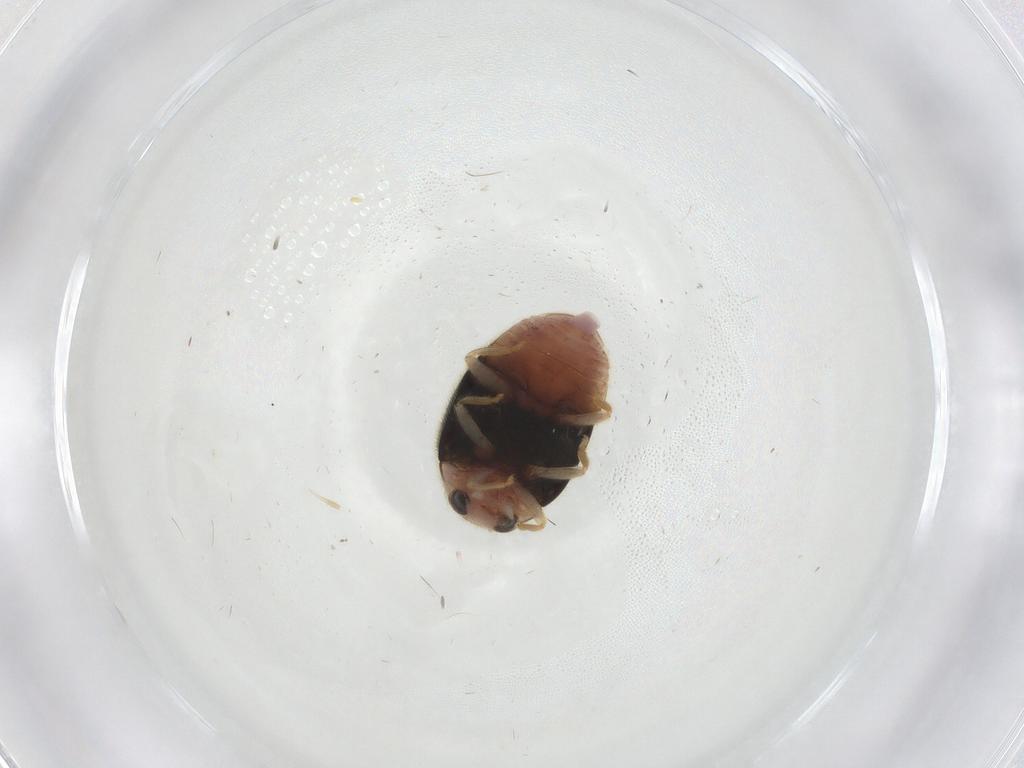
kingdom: Animalia
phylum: Arthropoda
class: Insecta
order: Coleoptera
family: Coccinellidae
